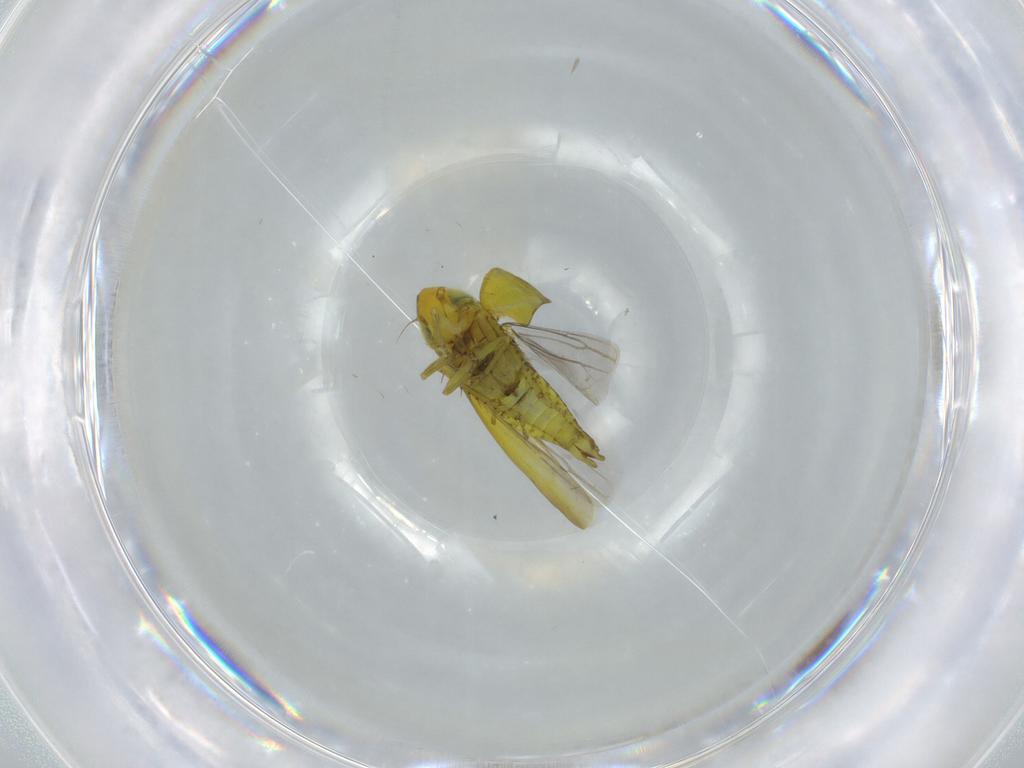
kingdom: Animalia
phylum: Arthropoda
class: Insecta
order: Hemiptera
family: Cicadellidae
